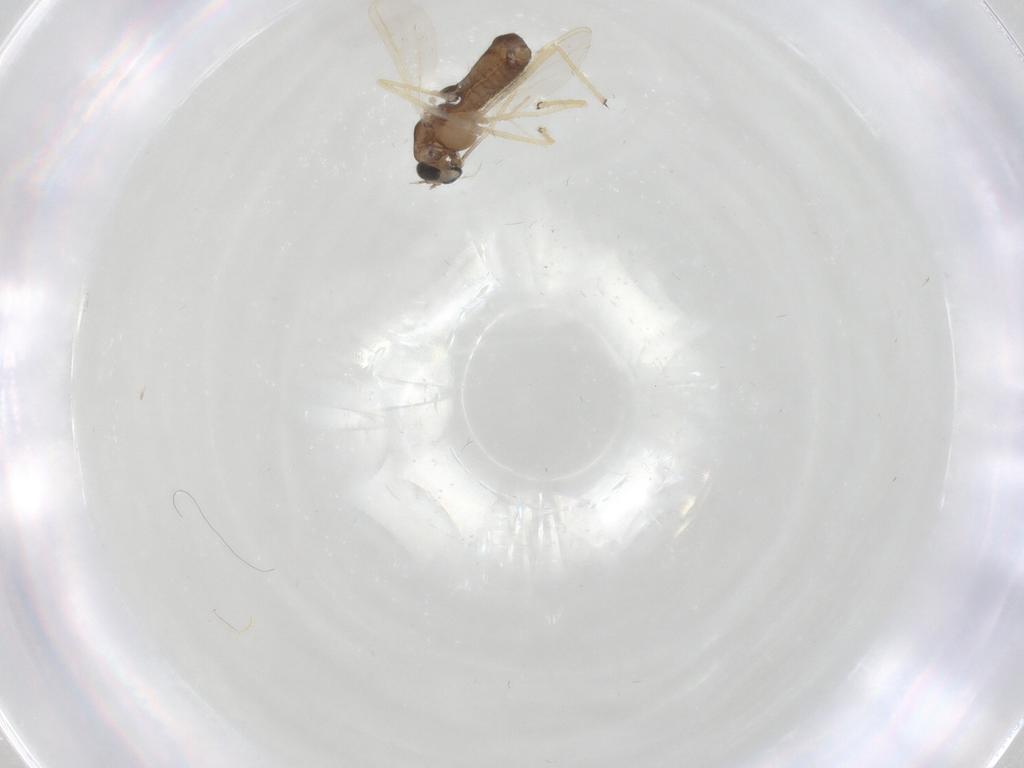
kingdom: Animalia
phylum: Arthropoda
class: Insecta
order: Diptera
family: Chironomidae
